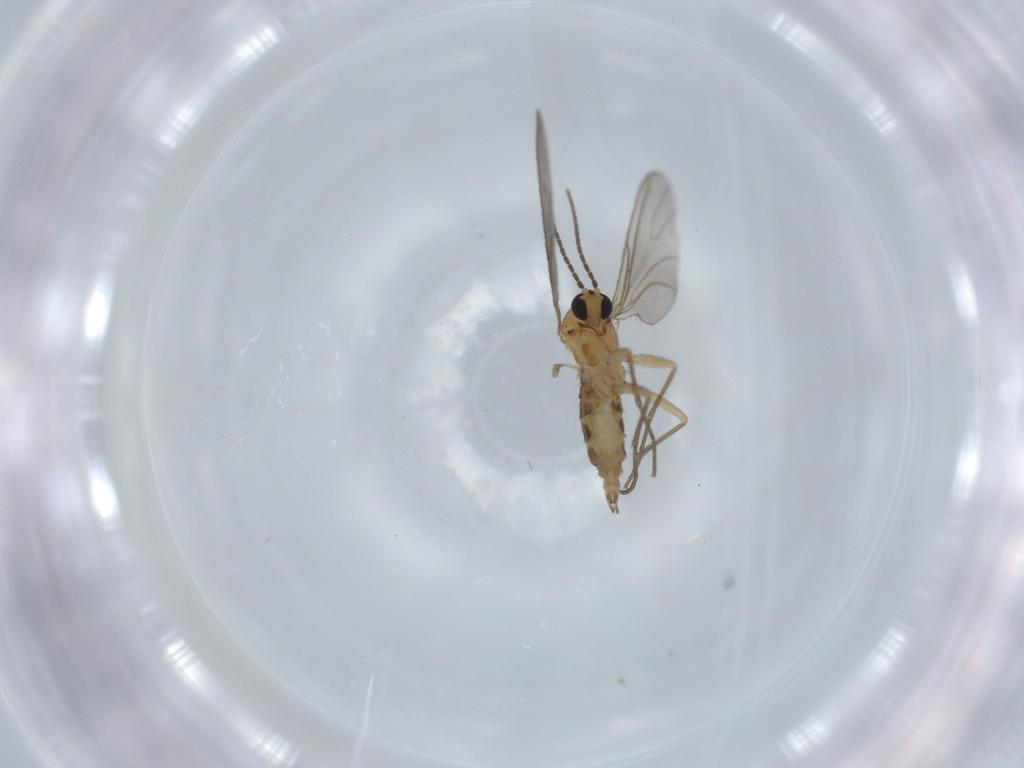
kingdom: Animalia
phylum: Arthropoda
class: Insecta
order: Diptera
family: Sciaridae
